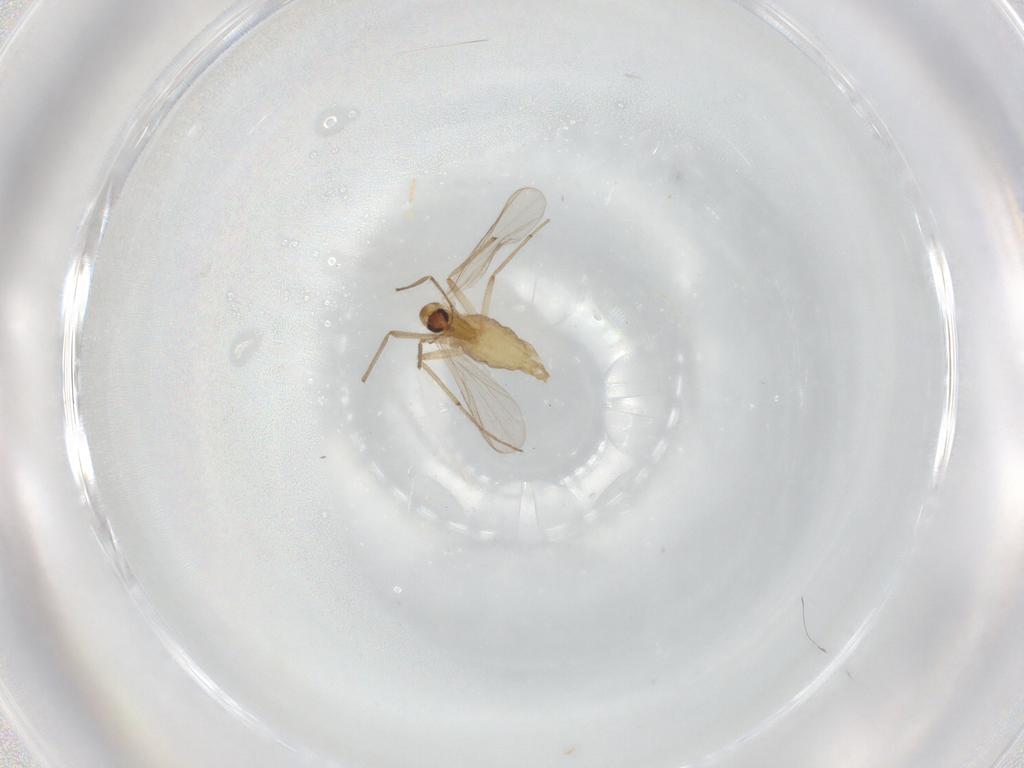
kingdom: Animalia
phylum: Arthropoda
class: Insecta
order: Diptera
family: Chironomidae
